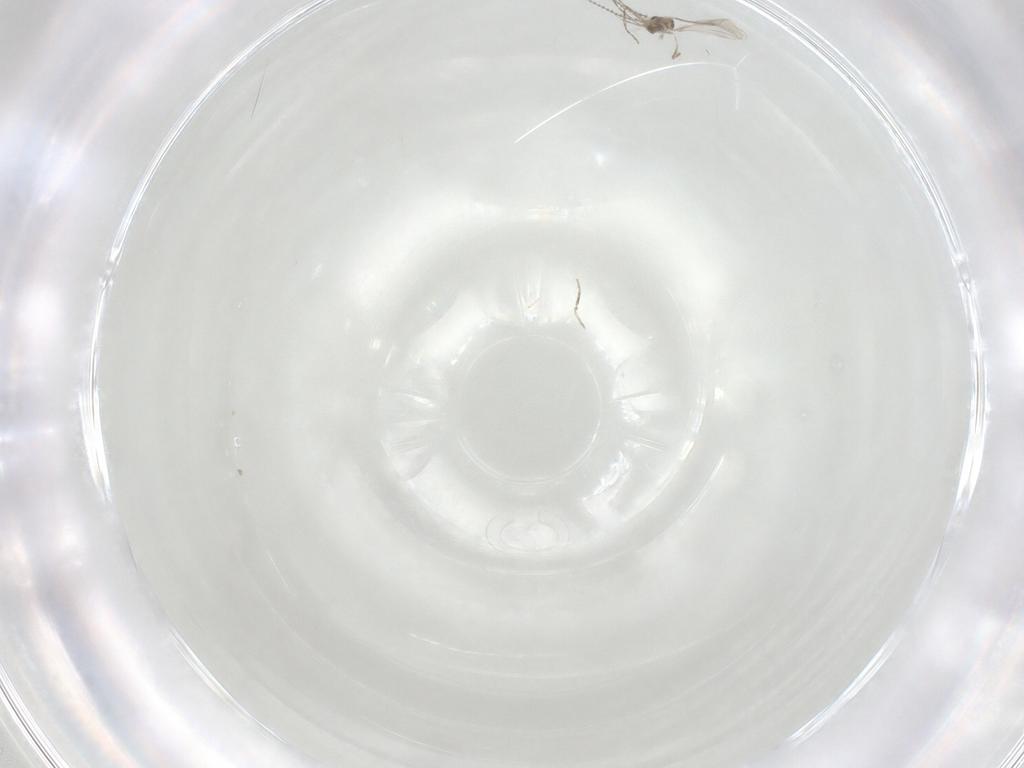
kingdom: Animalia
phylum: Arthropoda
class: Insecta
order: Diptera
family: Cecidomyiidae
